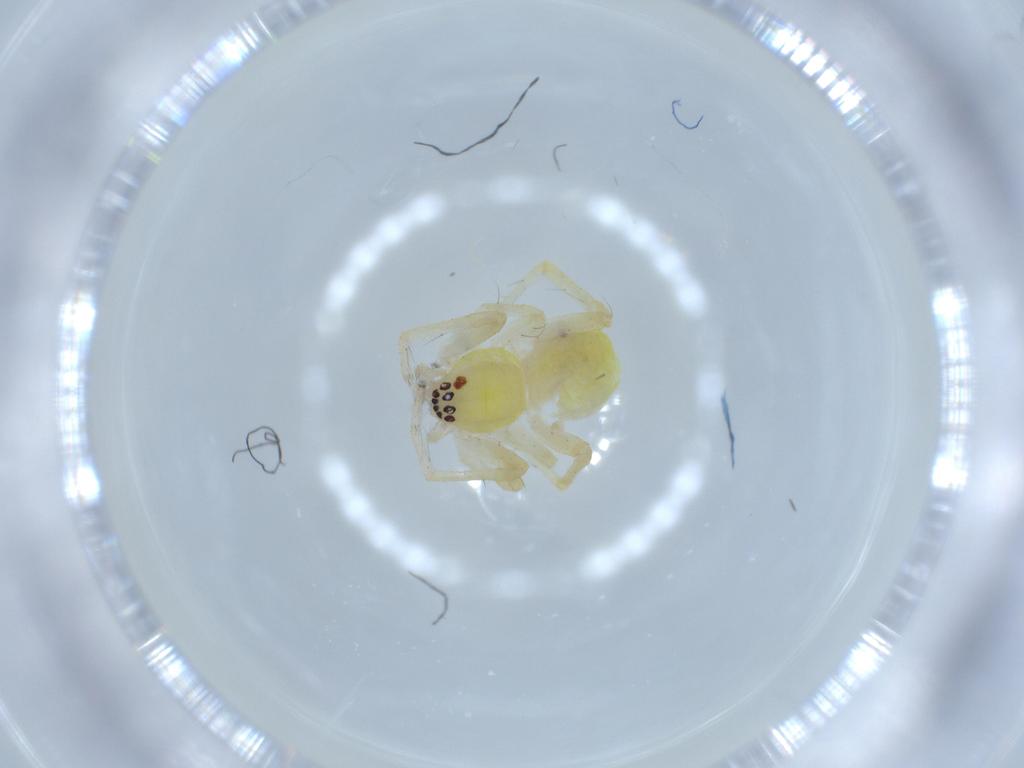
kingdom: Animalia
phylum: Arthropoda
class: Arachnida
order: Araneae
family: Anyphaenidae
